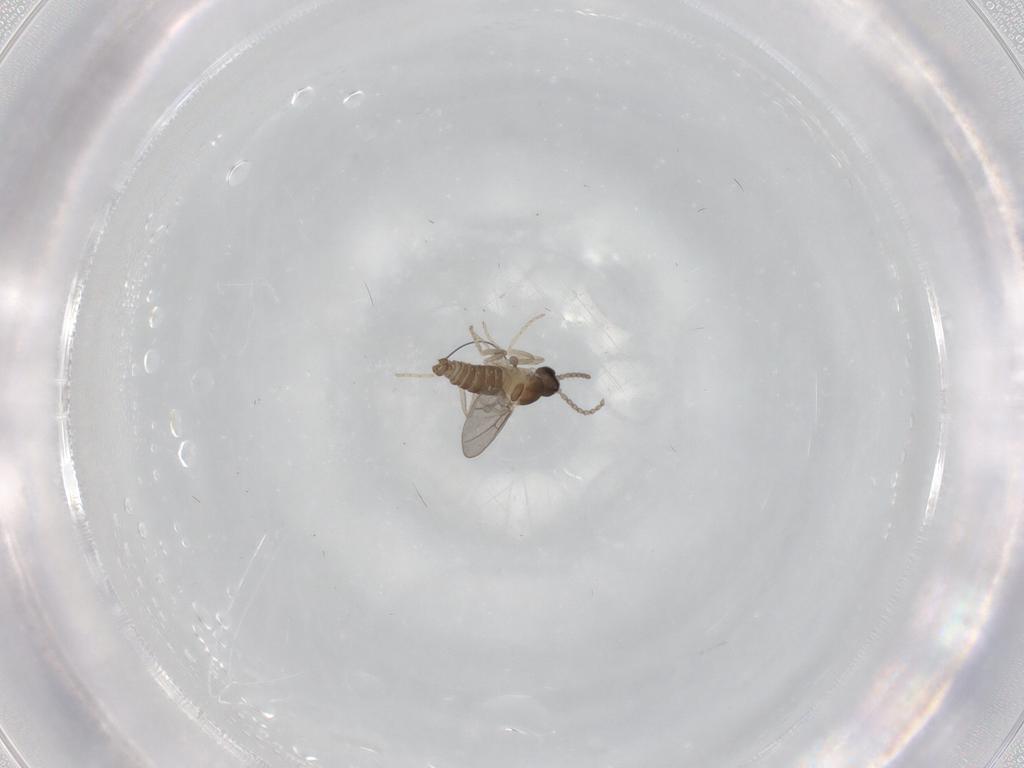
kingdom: Animalia
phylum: Arthropoda
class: Insecta
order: Diptera
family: Cecidomyiidae
